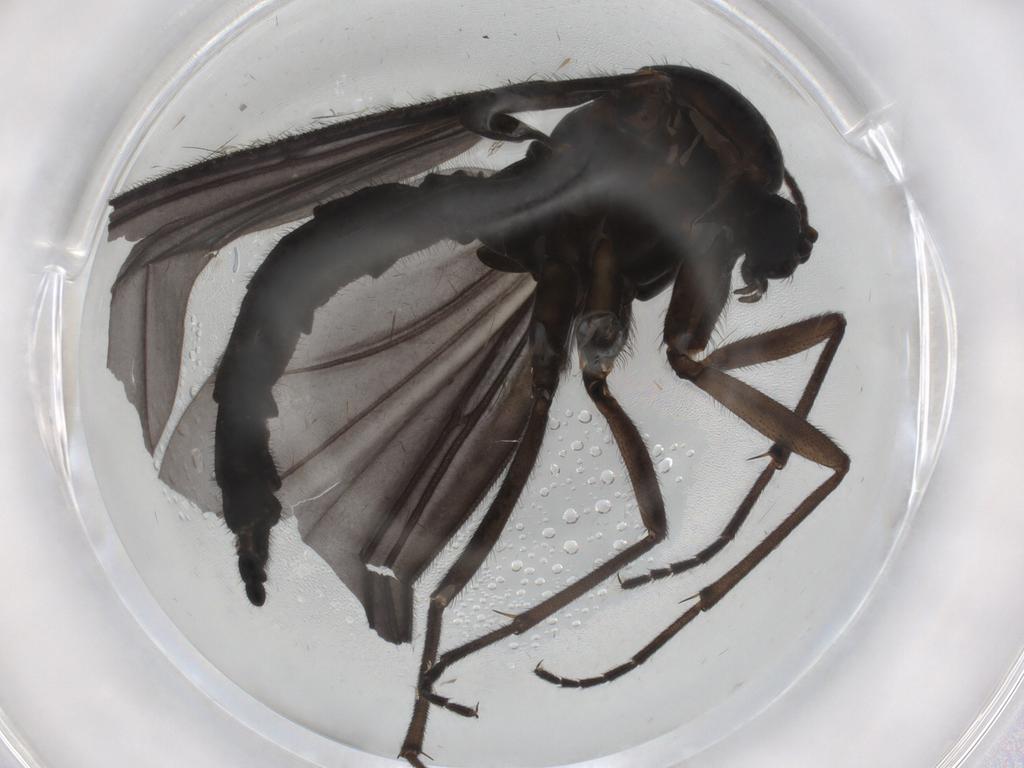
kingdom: Animalia
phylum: Arthropoda
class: Insecta
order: Diptera
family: Sciaridae
